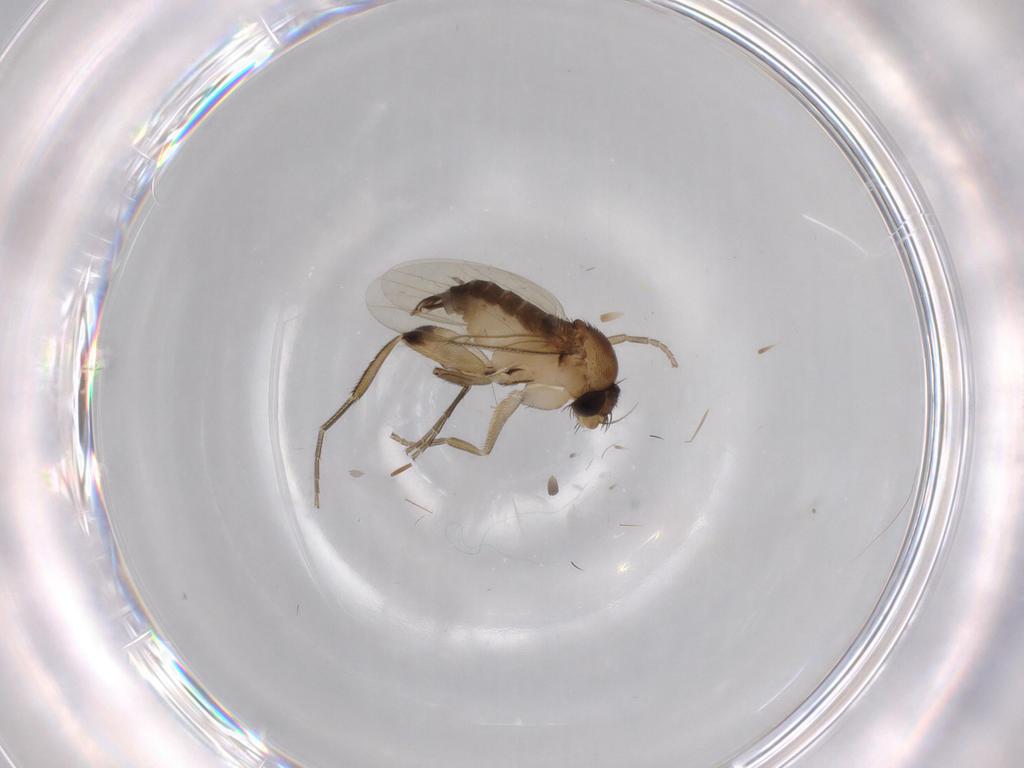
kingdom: Animalia
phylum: Arthropoda
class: Insecta
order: Diptera
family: Phoridae
